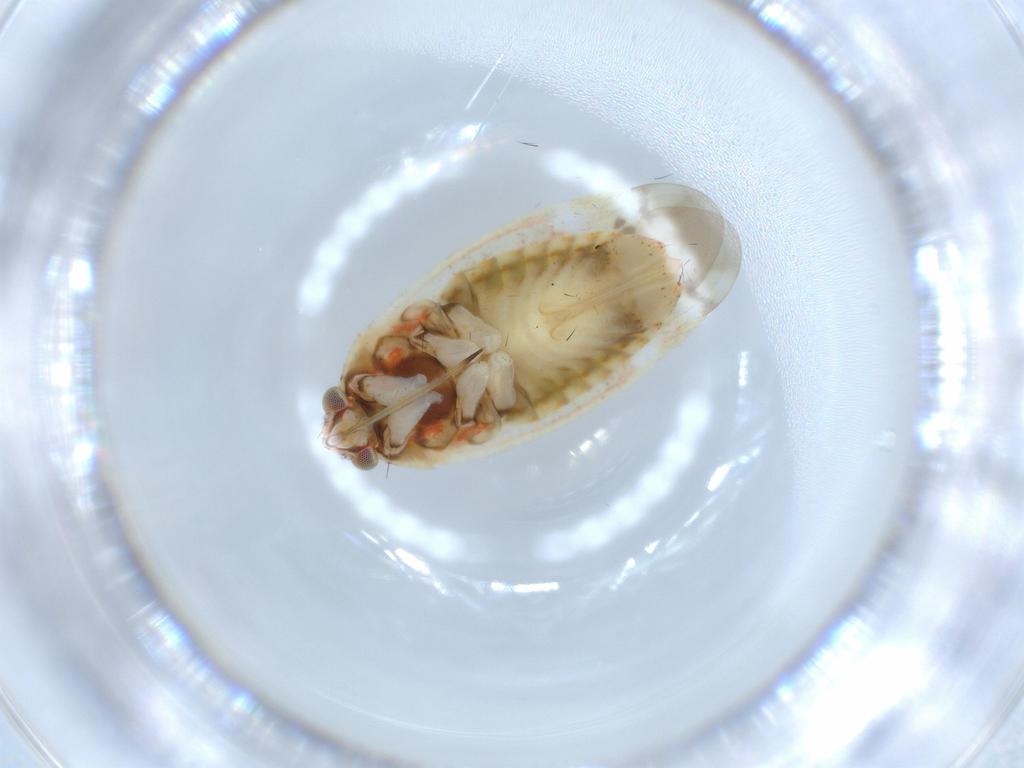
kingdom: Animalia
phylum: Arthropoda
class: Insecta
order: Hemiptera
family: Miridae
